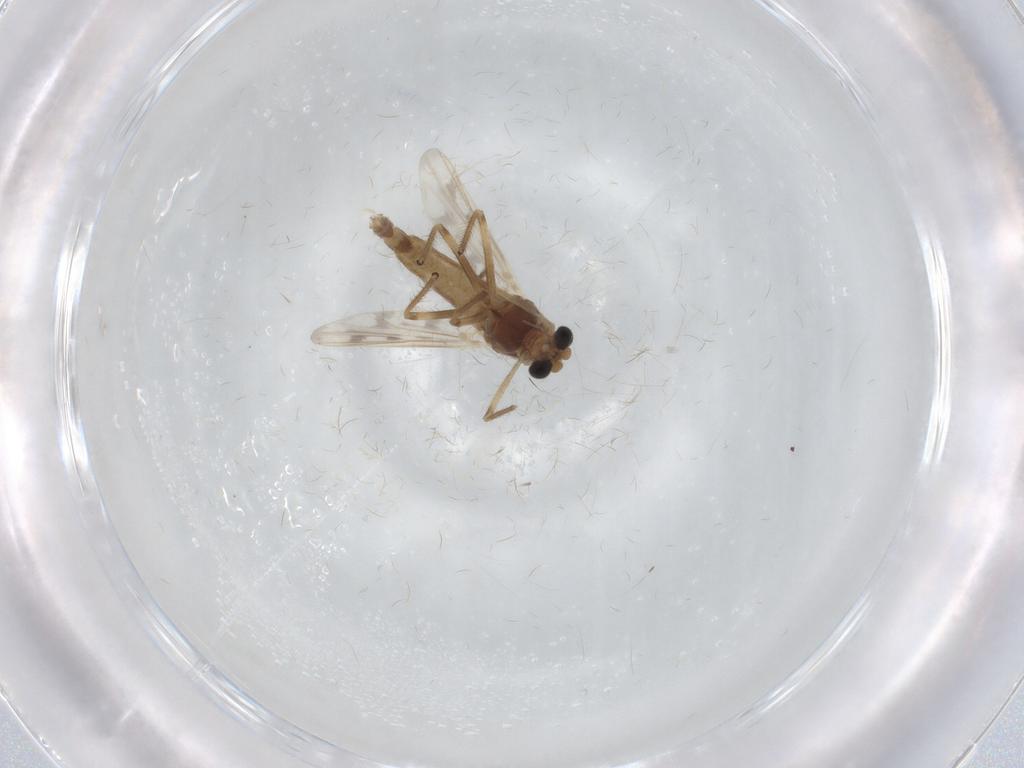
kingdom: Animalia
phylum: Arthropoda
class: Insecta
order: Diptera
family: Chironomidae
